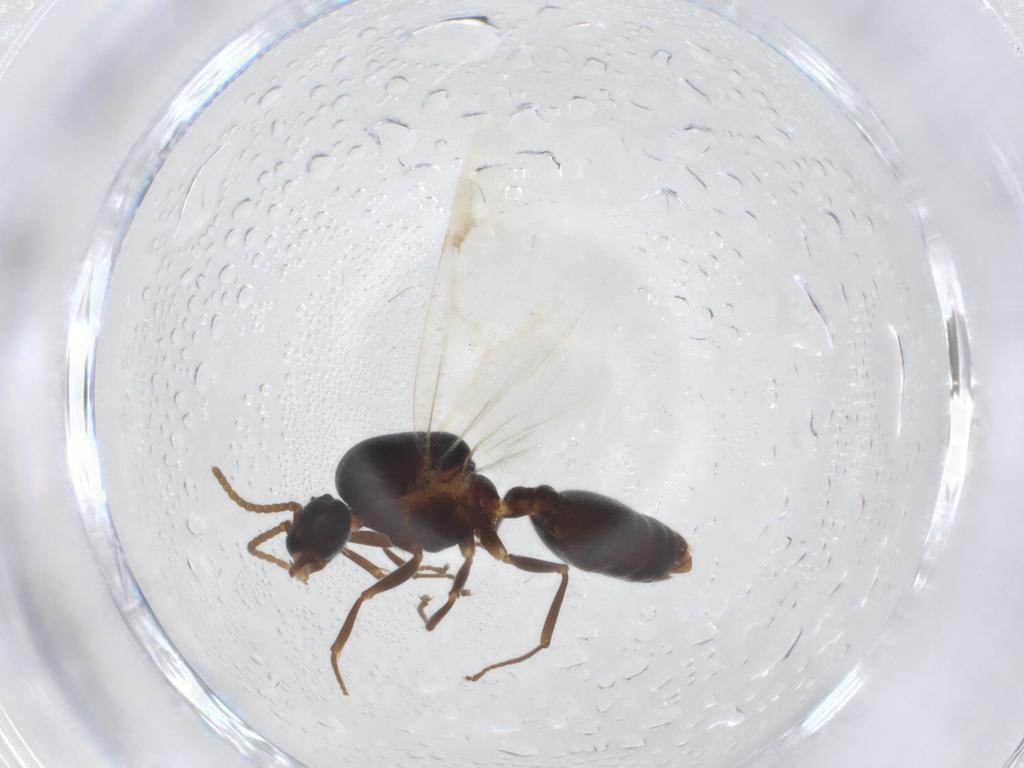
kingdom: Animalia
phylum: Arthropoda
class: Insecta
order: Hymenoptera
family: Formicidae
